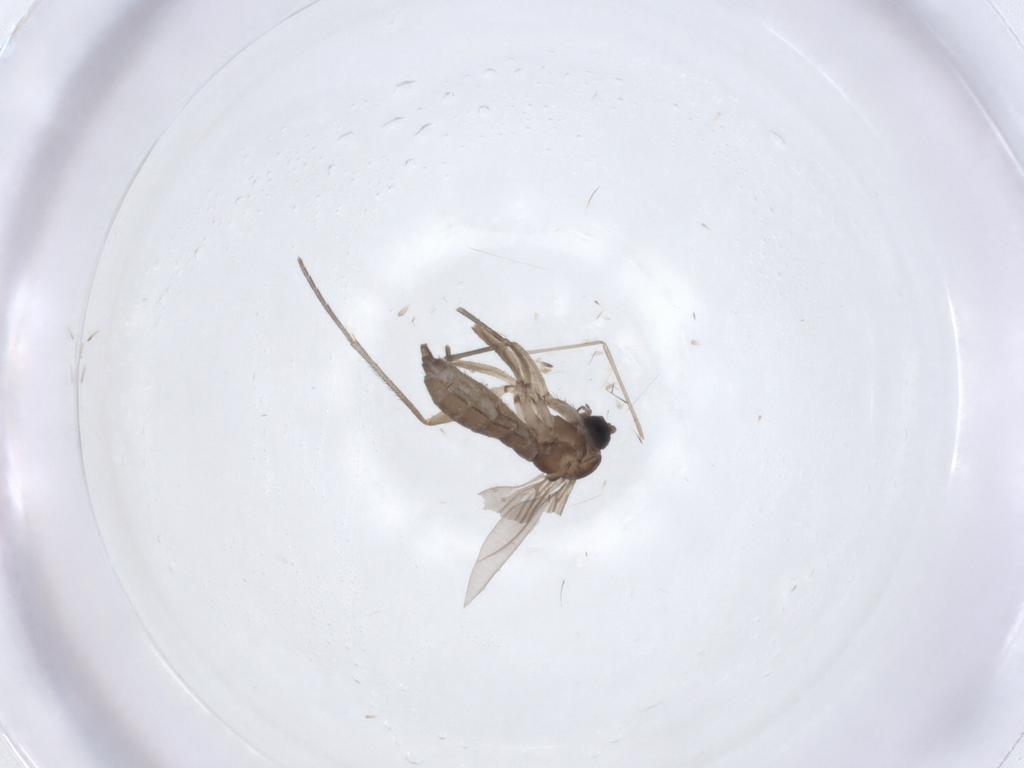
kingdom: Animalia
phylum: Arthropoda
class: Insecta
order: Diptera
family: Sciaridae
